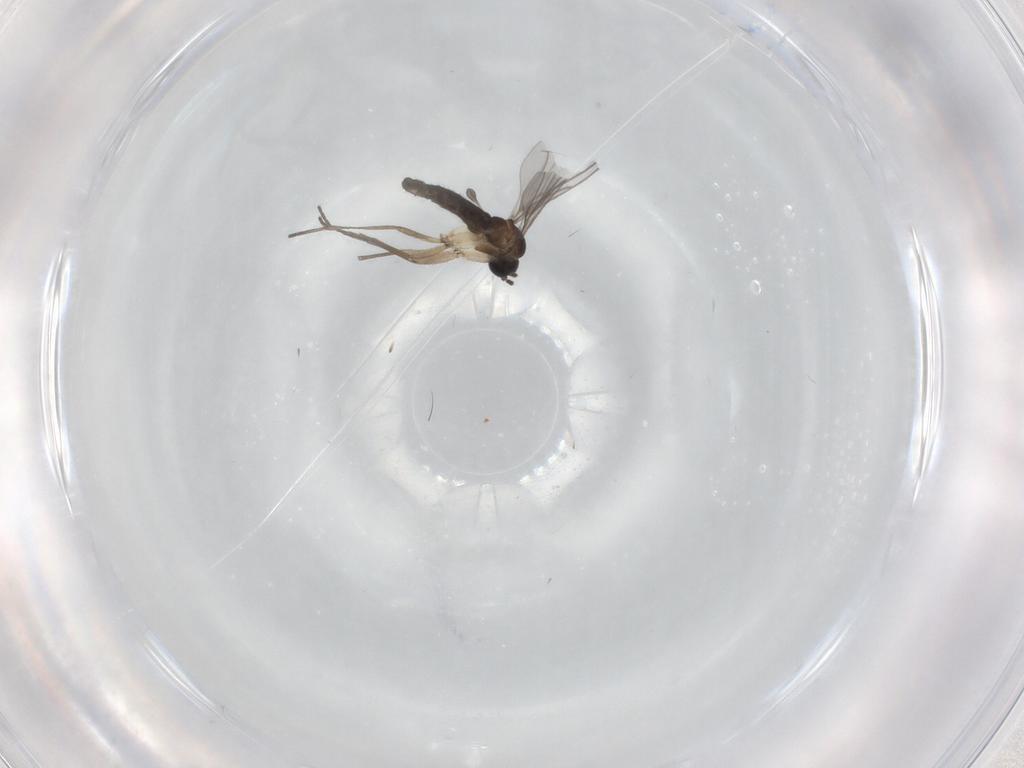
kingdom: Animalia
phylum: Arthropoda
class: Insecta
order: Diptera
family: Sciaridae
